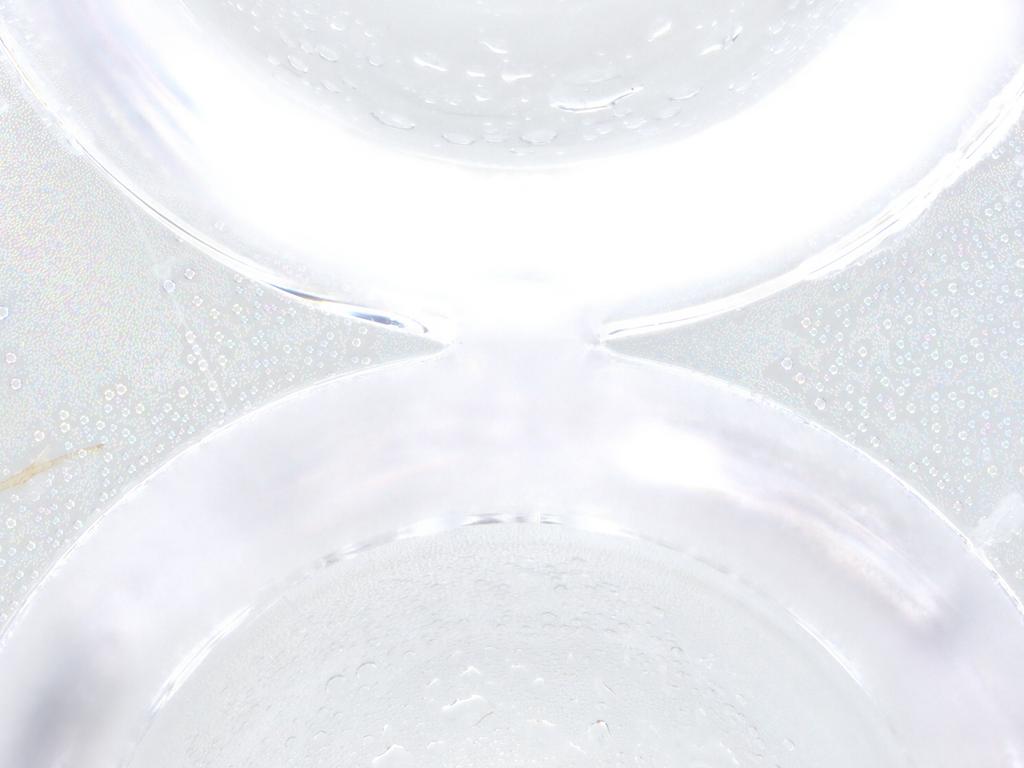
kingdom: Animalia
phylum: Arthropoda
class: Insecta
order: Diptera
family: Ceratopogonidae
